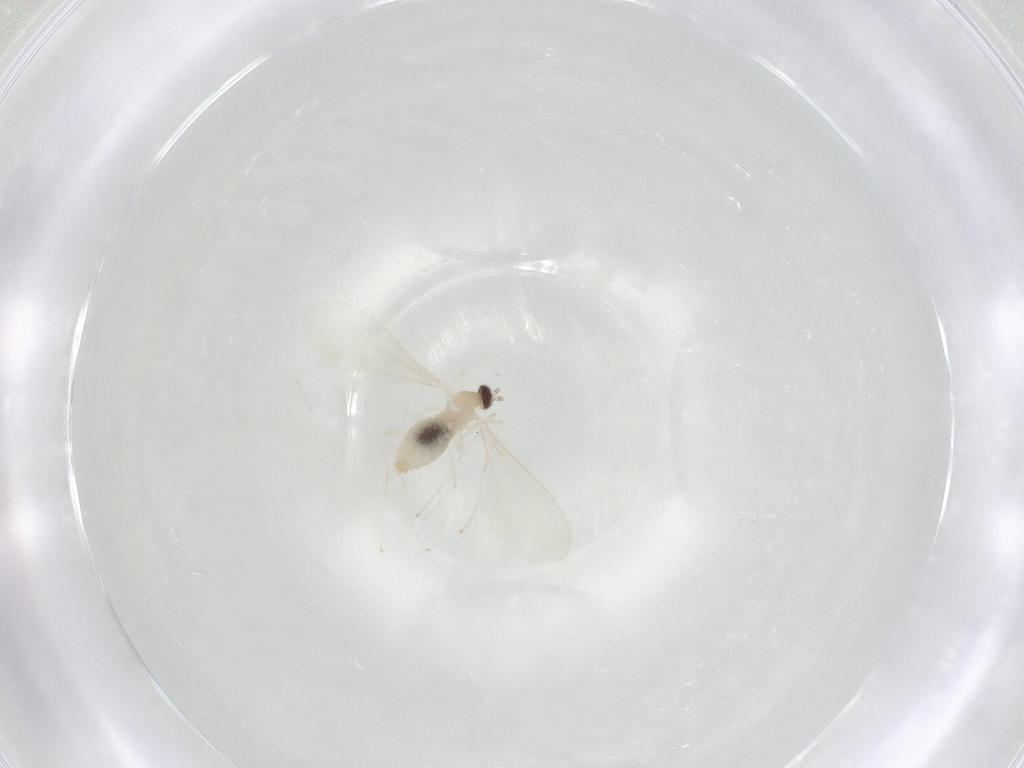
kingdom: Animalia
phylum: Arthropoda
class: Insecta
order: Diptera
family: Cecidomyiidae
